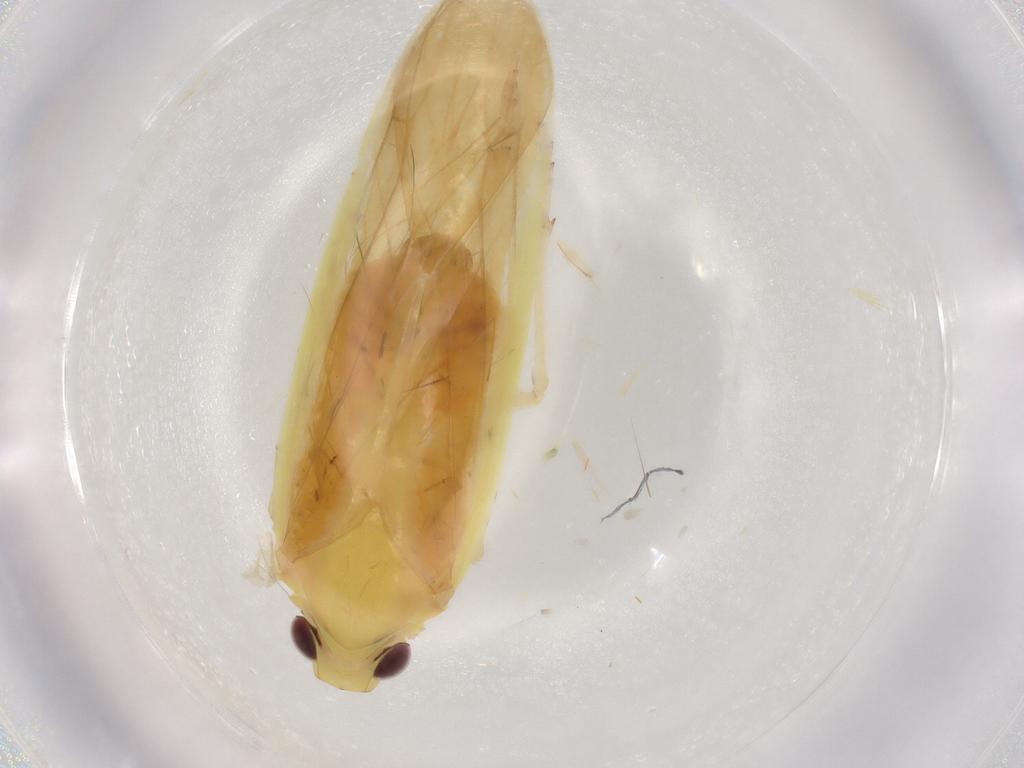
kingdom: Animalia
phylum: Arthropoda
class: Insecta
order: Hemiptera
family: Achilidae
